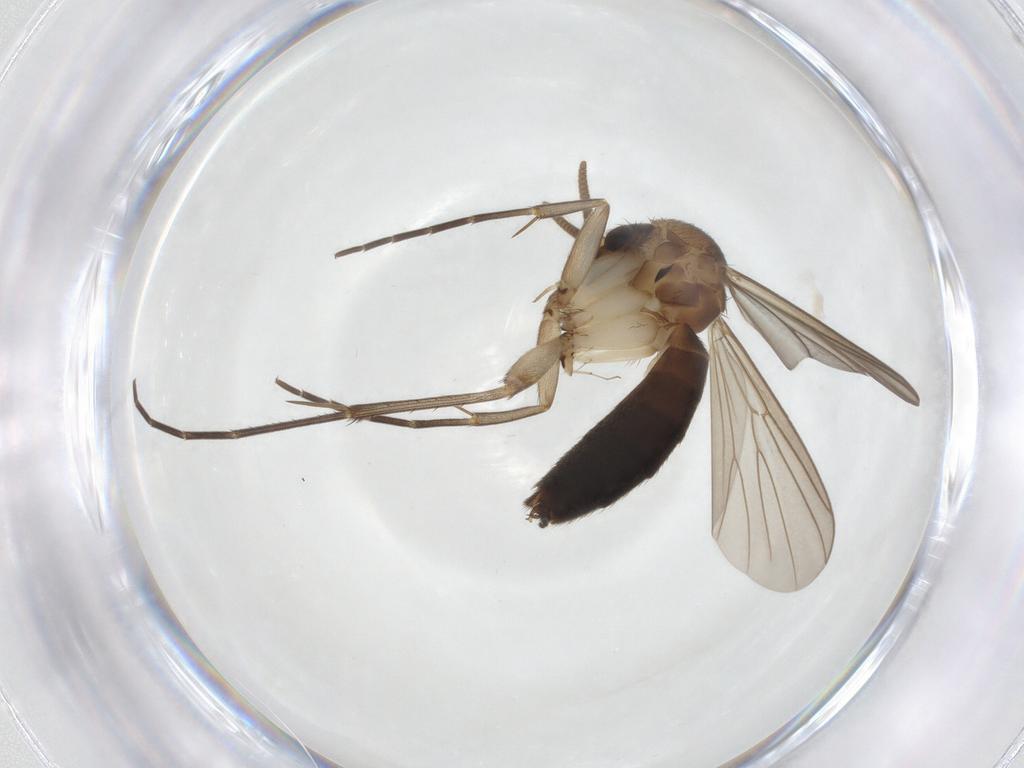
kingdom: Animalia
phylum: Arthropoda
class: Insecta
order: Diptera
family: Mycetophilidae
